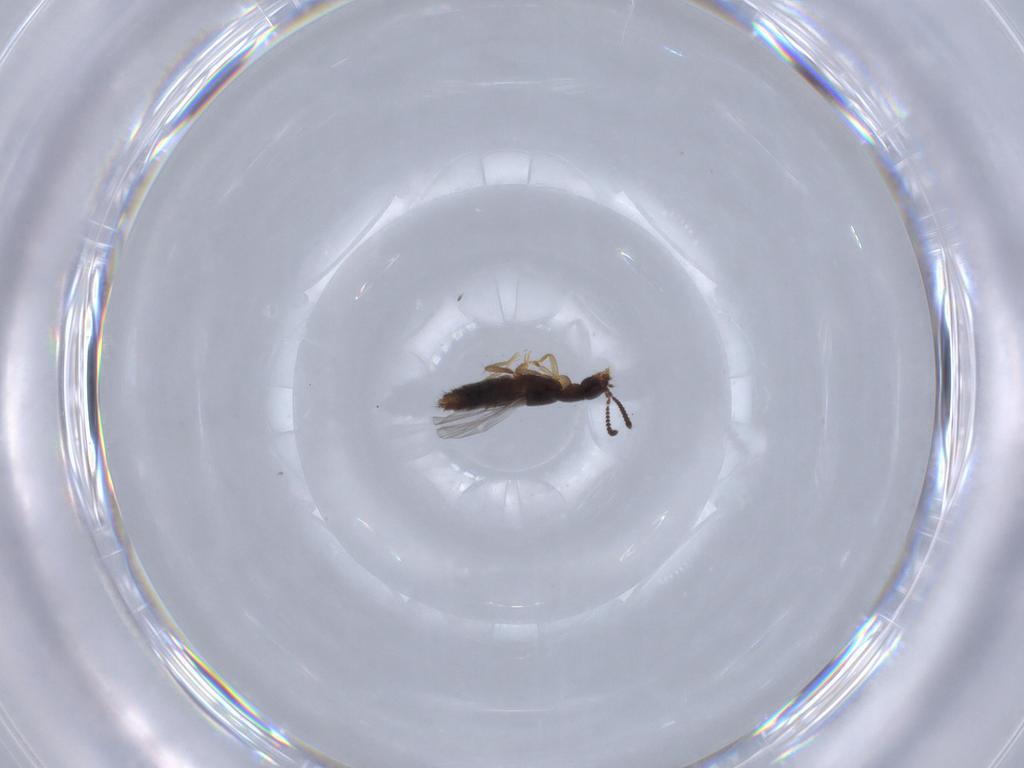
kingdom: Animalia
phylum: Arthropoda
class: Insecta
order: Coleoptera
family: Staphylinidae
